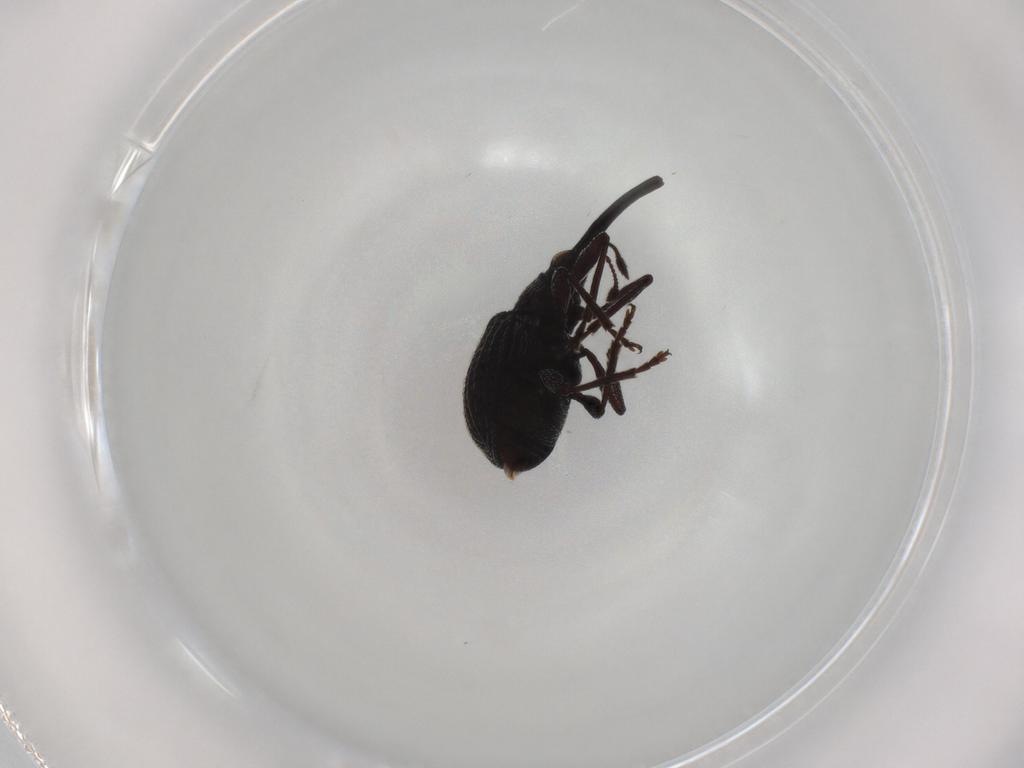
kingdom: Animalia
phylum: Arthropoda
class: Insecta
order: Coleoptera
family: Brentidae
